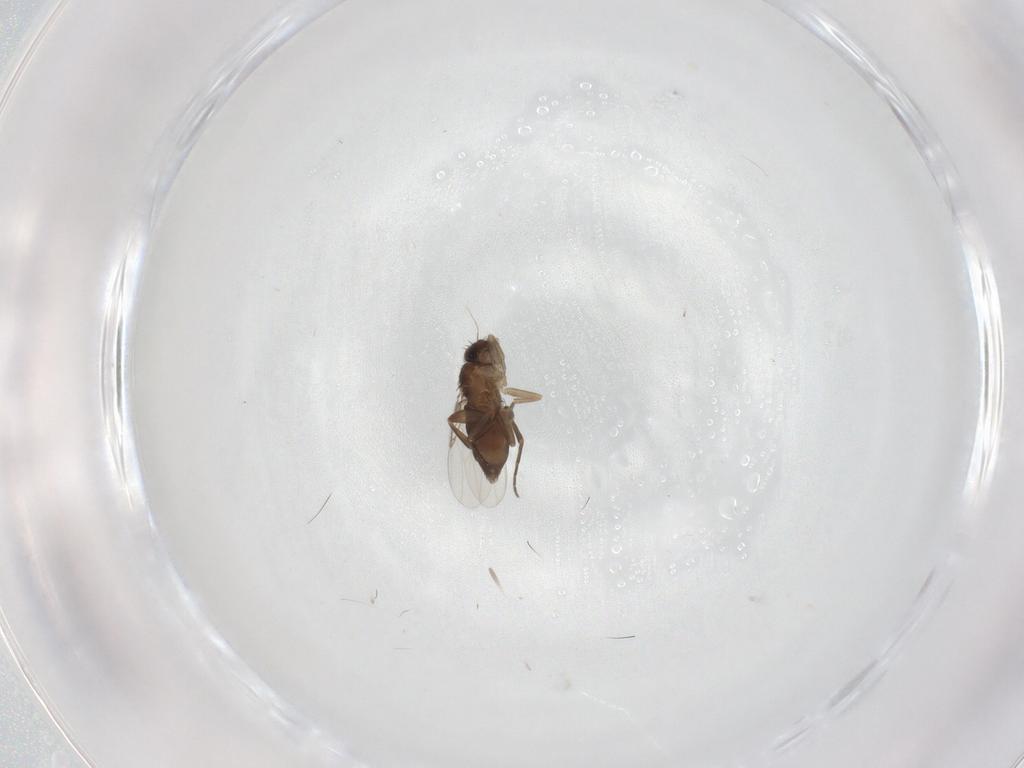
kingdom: Animalia
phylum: Arthropoda
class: Insecta
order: Diptera
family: Phoridae
